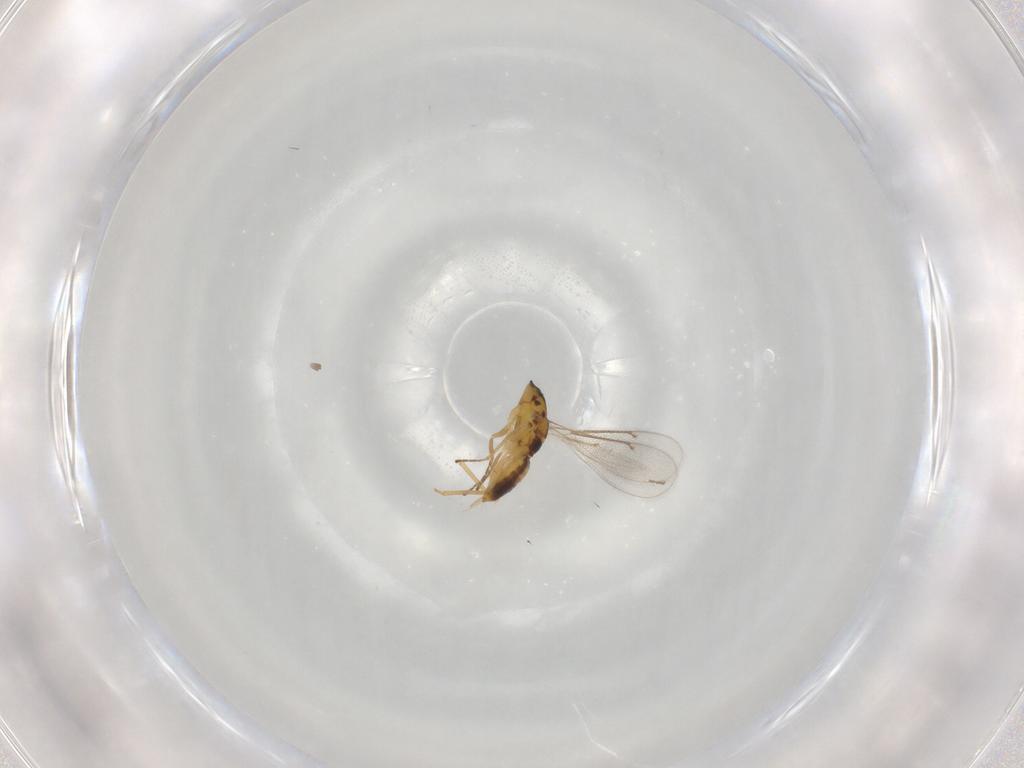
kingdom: Animalia
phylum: Arthropoda
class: Insecta
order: Hymenoptera
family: Eulophidae
